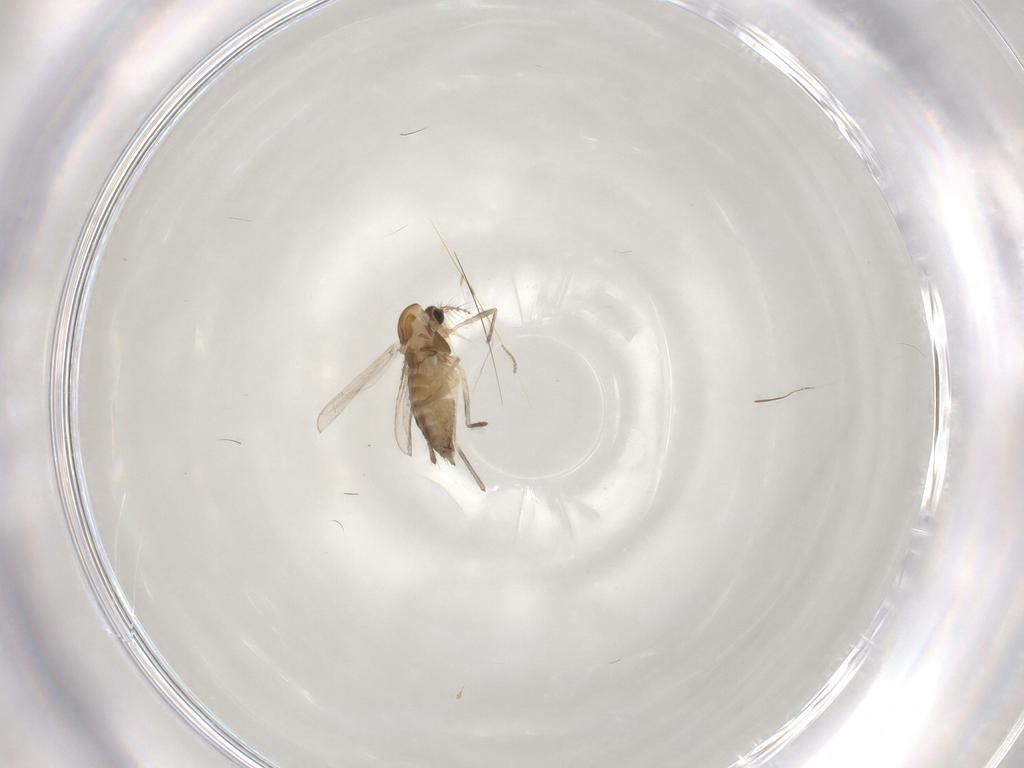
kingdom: Animalia
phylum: Arthropoda
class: Insecta
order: Diptera
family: Chironomidae
